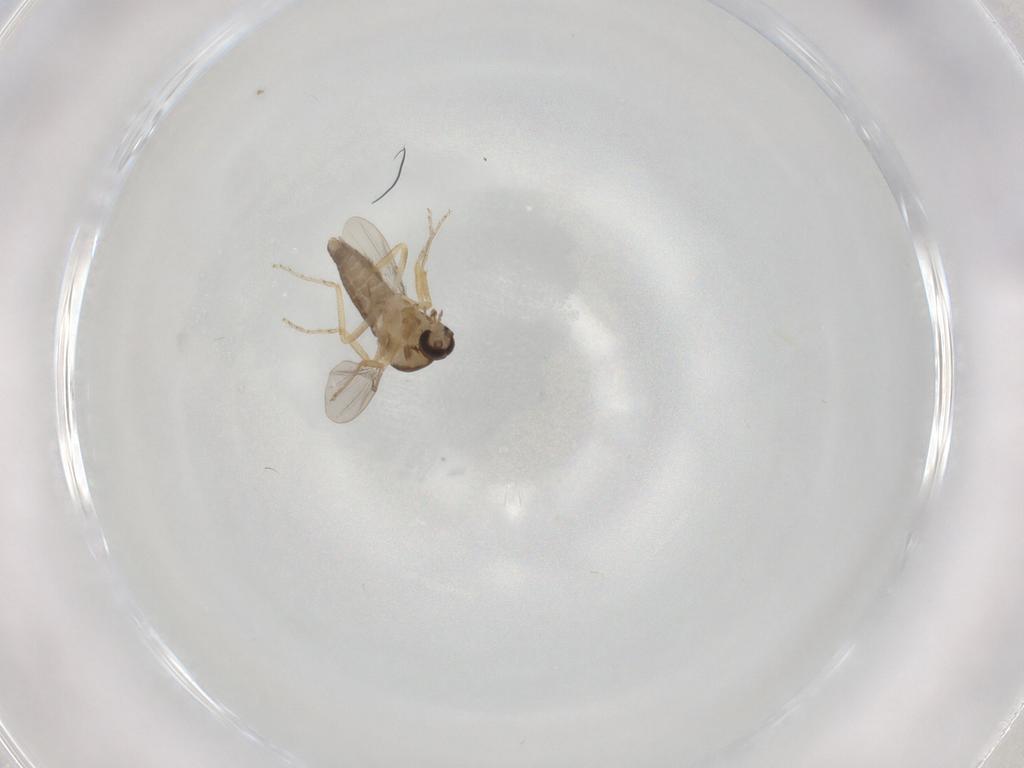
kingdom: Animalia
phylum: Arthropoda
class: Insecta
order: Diptera
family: Ceratopogonidae
